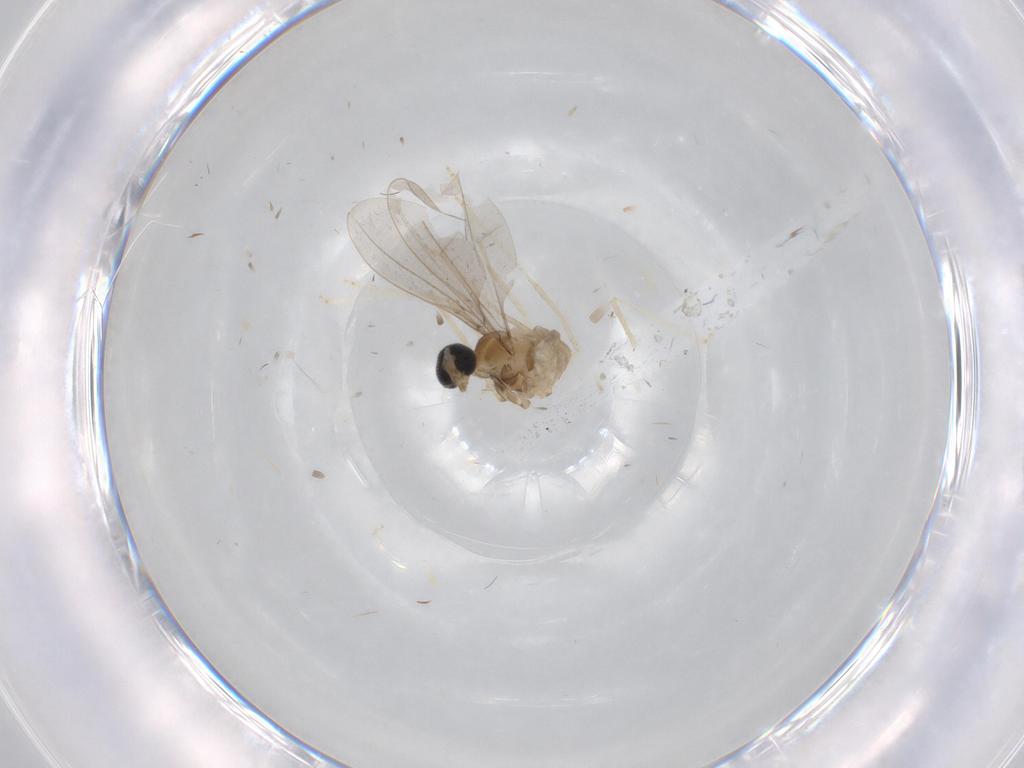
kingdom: Animalia
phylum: Arthropoda
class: Insecta
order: Diptera
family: Cecidomyiidae
